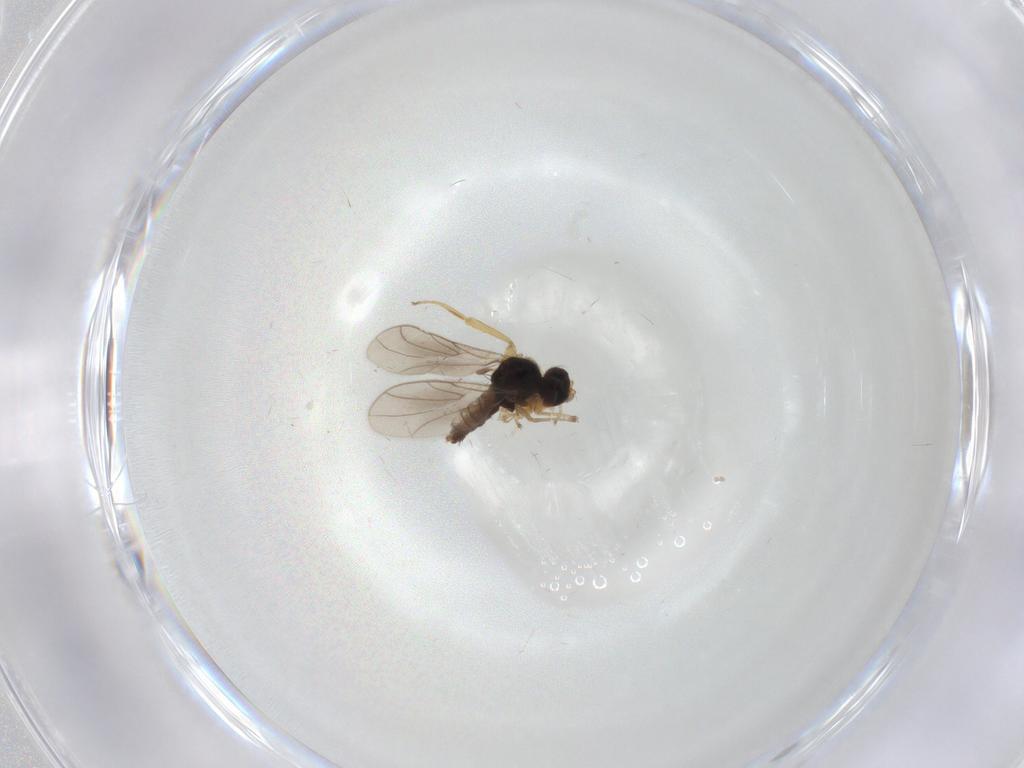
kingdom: Animalia
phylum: Arthropoda
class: Insecta
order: Diptera
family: Hybotidae
